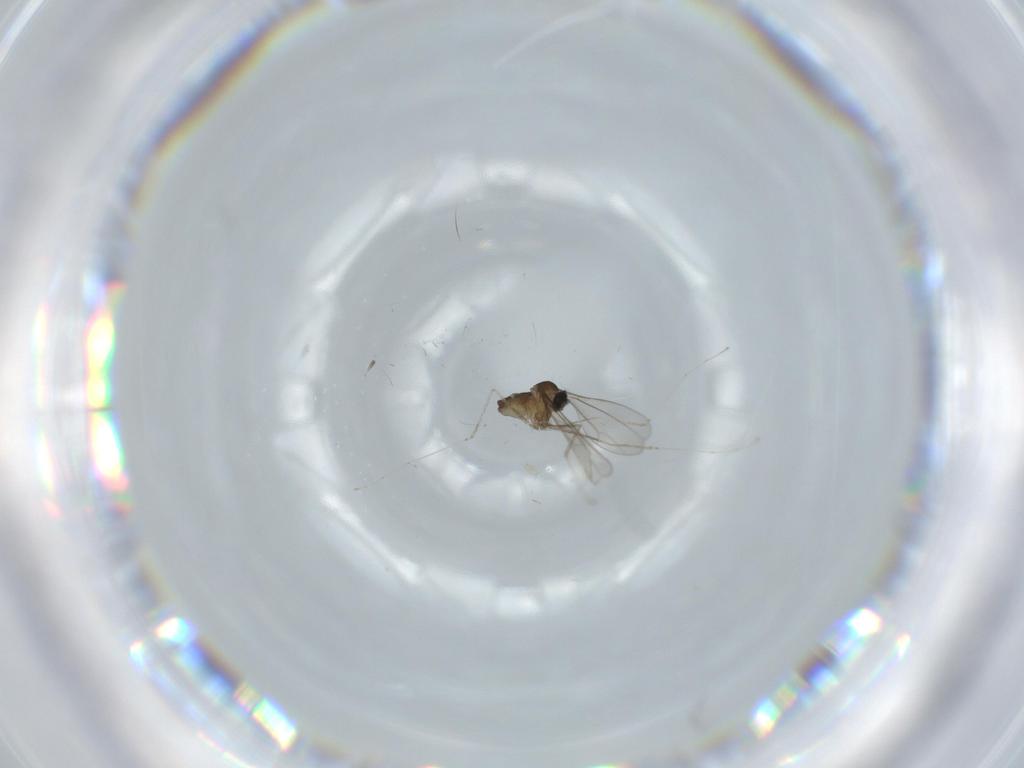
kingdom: Animalia
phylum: Arthropoda
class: Insecta
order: Diptera
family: Cecidomyiidae
